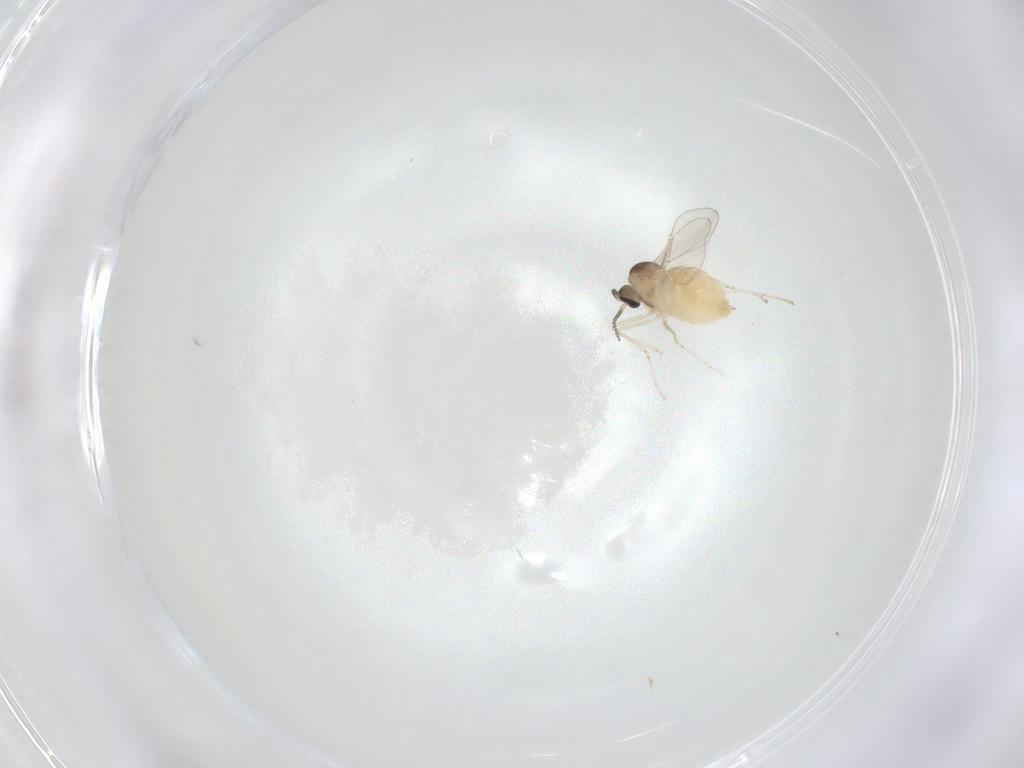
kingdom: Animalia
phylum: Arthropoda
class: Insecta
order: Diptera
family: Cecidomyiidae
